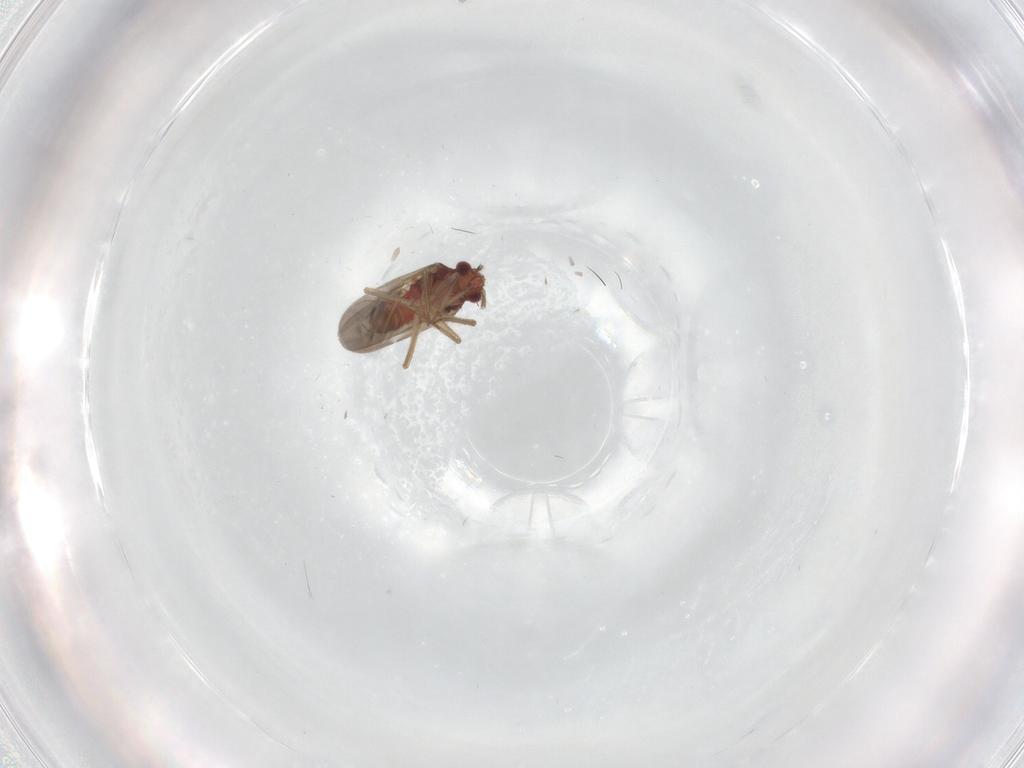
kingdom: Animalia
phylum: Arthropoda
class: Insecta
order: Hemiptera
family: Ceratocombidae
